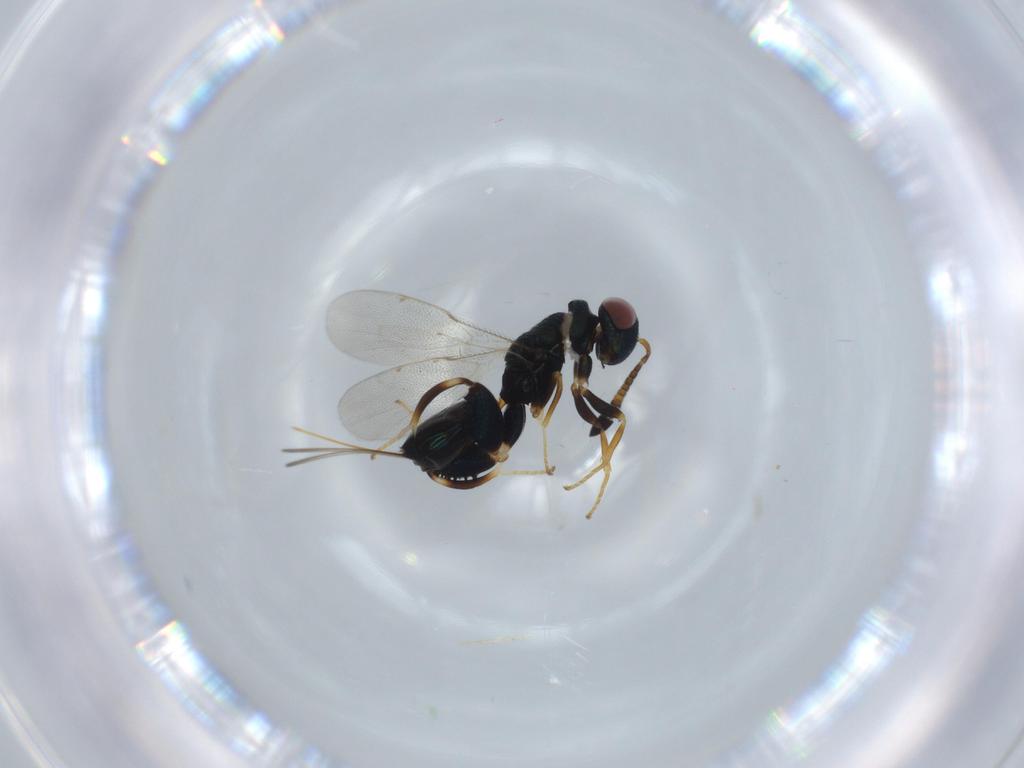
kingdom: Animalia
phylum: Arthropoda
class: Insecta
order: Hymenoptera
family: Torymidae
